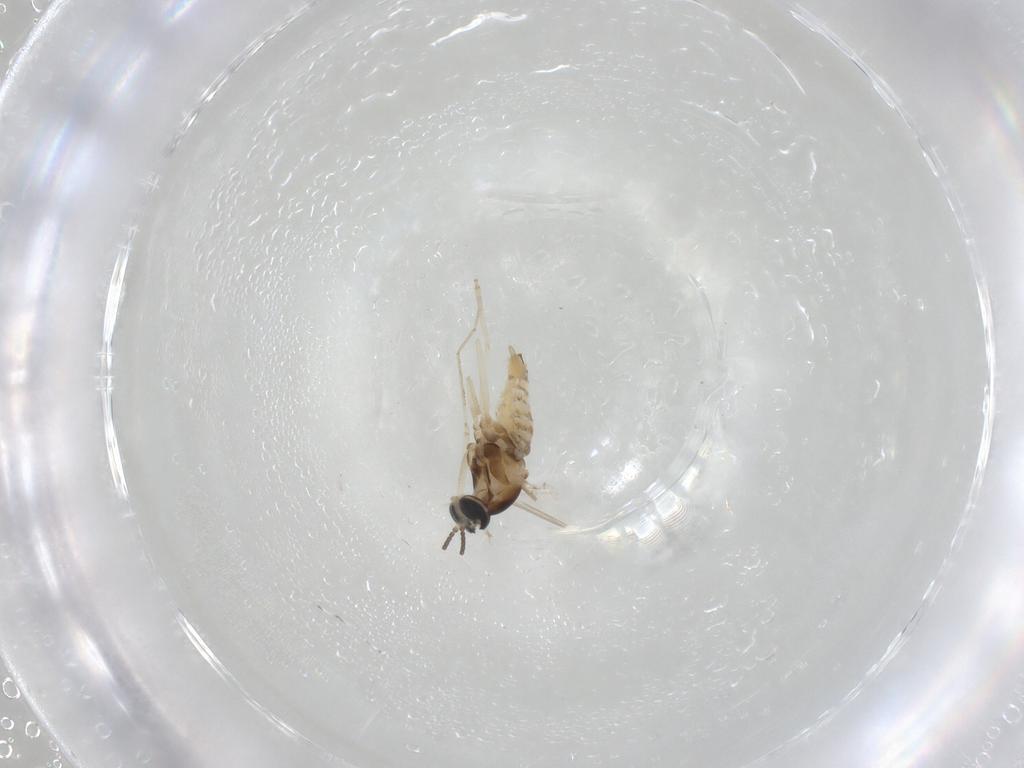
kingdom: Animalia
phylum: Arthropoda
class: Insecta
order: Diptera
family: Cecidomyiidae
